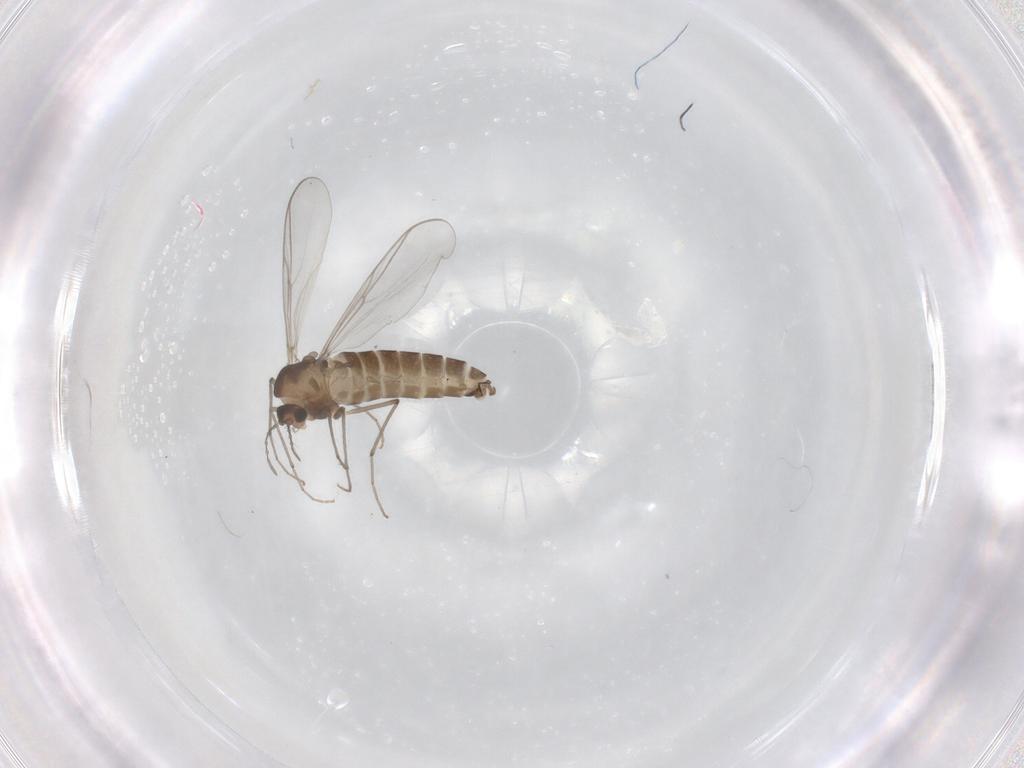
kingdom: Animalia
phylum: Arthropoda
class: Insecta
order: Diptera
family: Chironomidae
